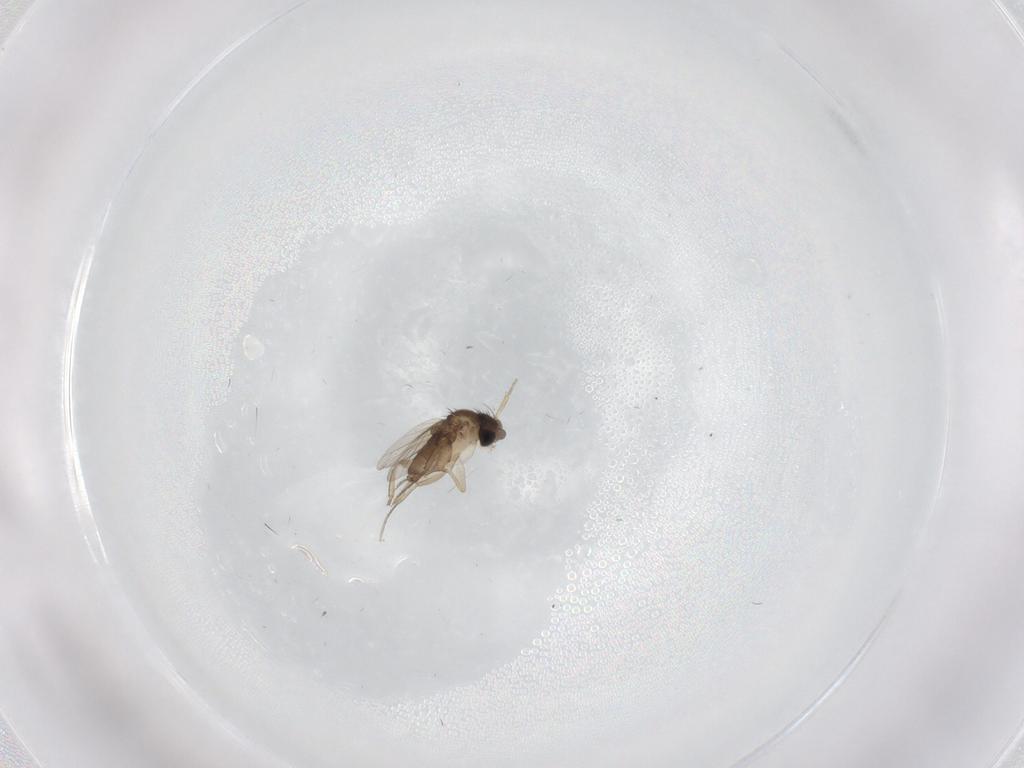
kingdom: Animalia
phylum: Arthropoda
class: Insecta
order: Diptera
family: Phoridae
